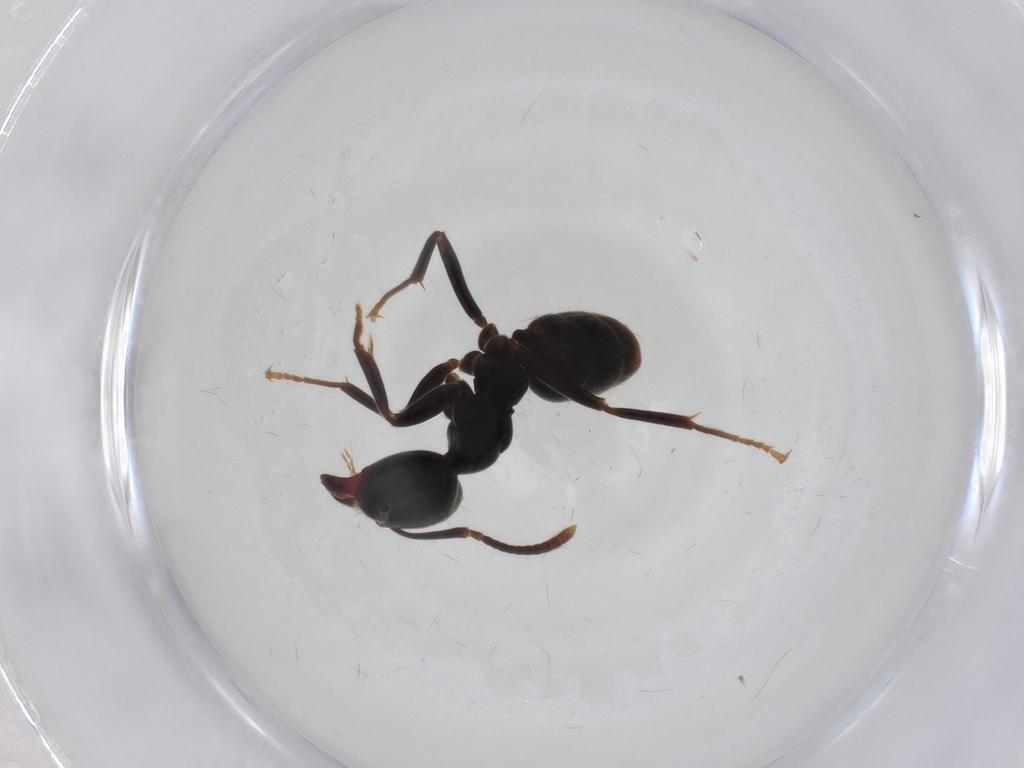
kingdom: Animalia
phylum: Arthropoda
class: Insecta
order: Hymenoptera
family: Formicidae
